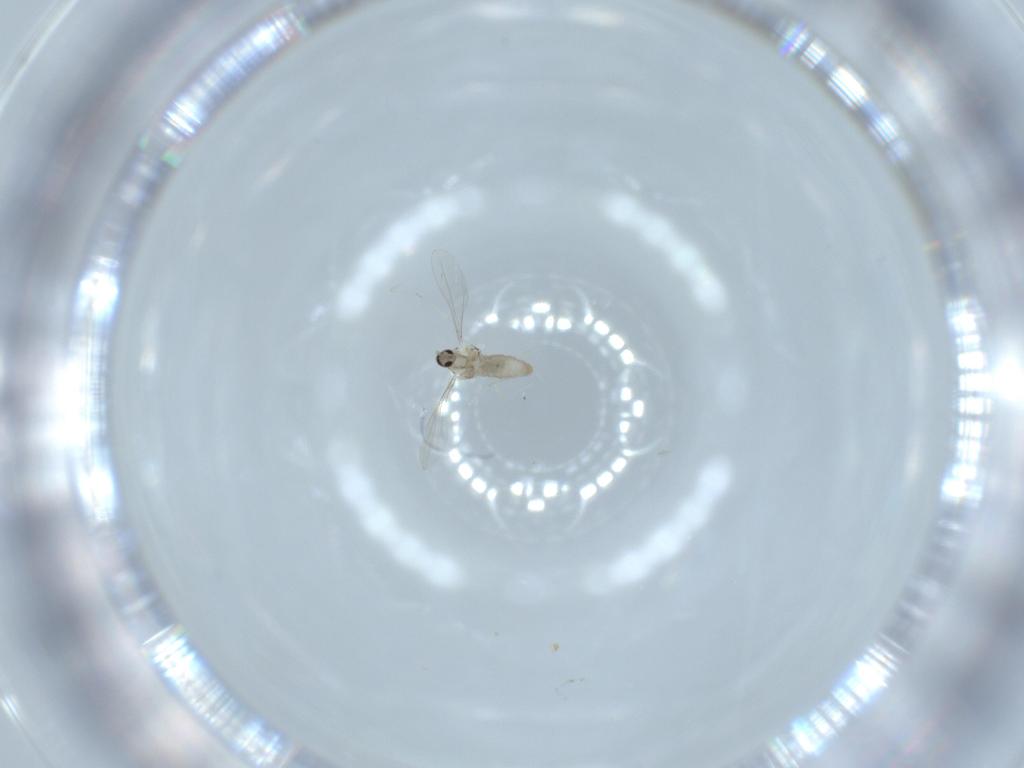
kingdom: Animalia
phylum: Arthropoda
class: Insecta
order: Diptera
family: Cecidomyiidae
